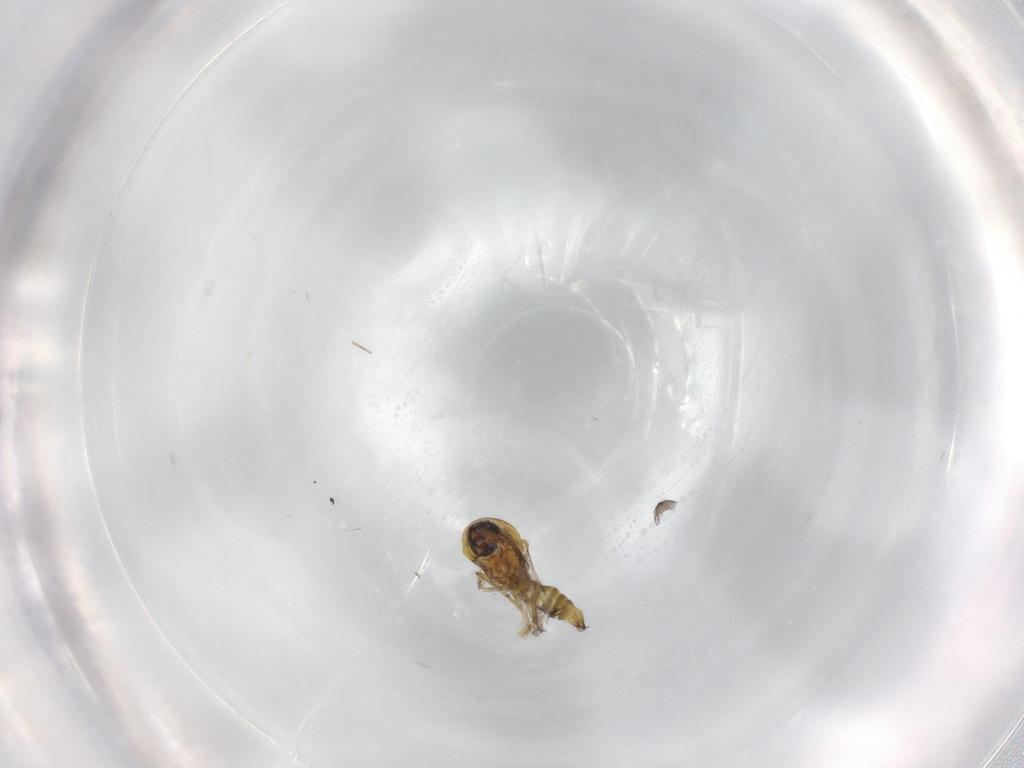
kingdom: Animalia
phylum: Arthropoda
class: Insecta
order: Diptera
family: Ceratopogonidae
